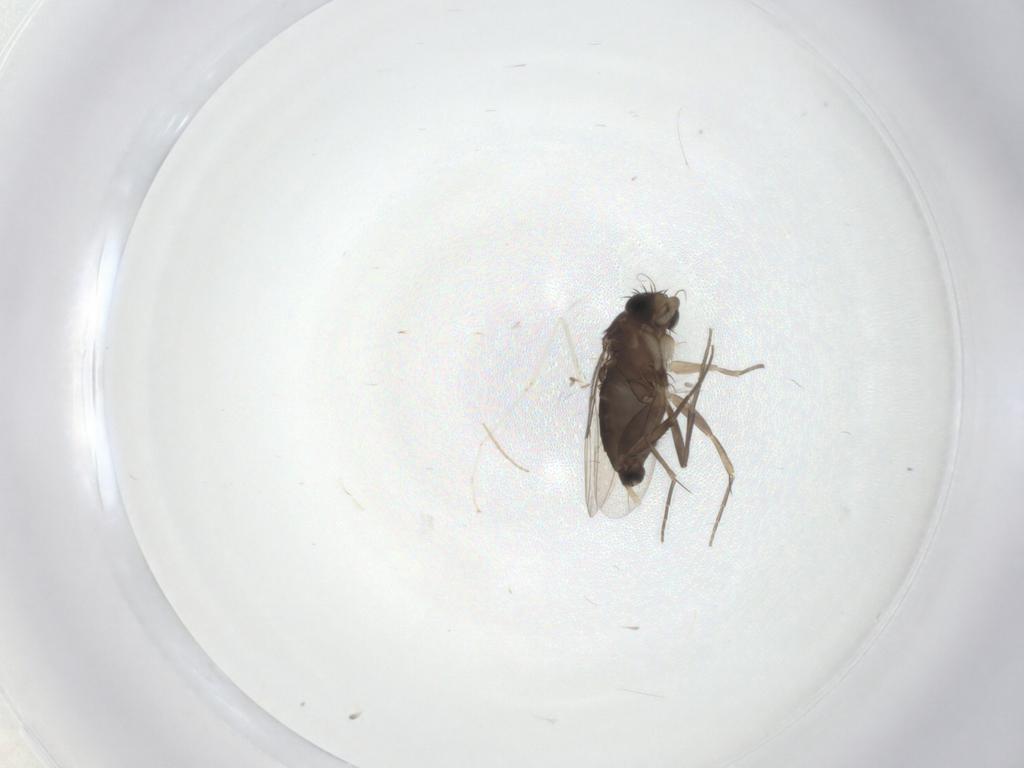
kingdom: Animalia
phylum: Arthropoda
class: Insecta
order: Diptera
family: Phoridae
